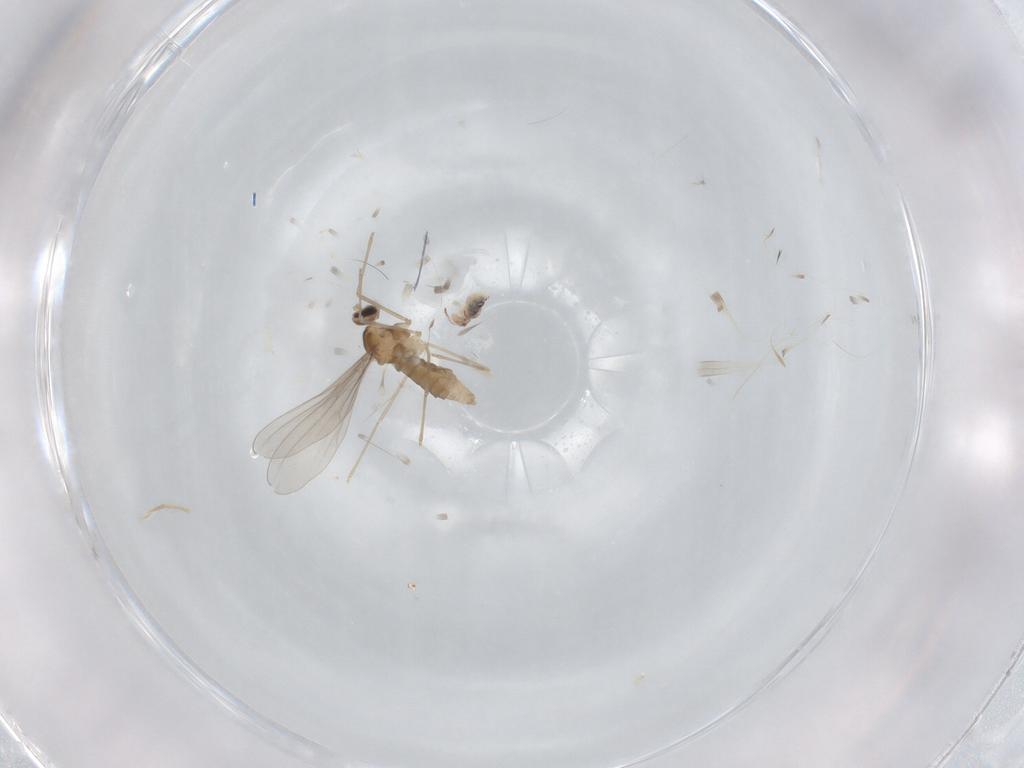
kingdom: Animalia
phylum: Arthropoda
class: Insecta
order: Diptera
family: Cecidomyiidae
